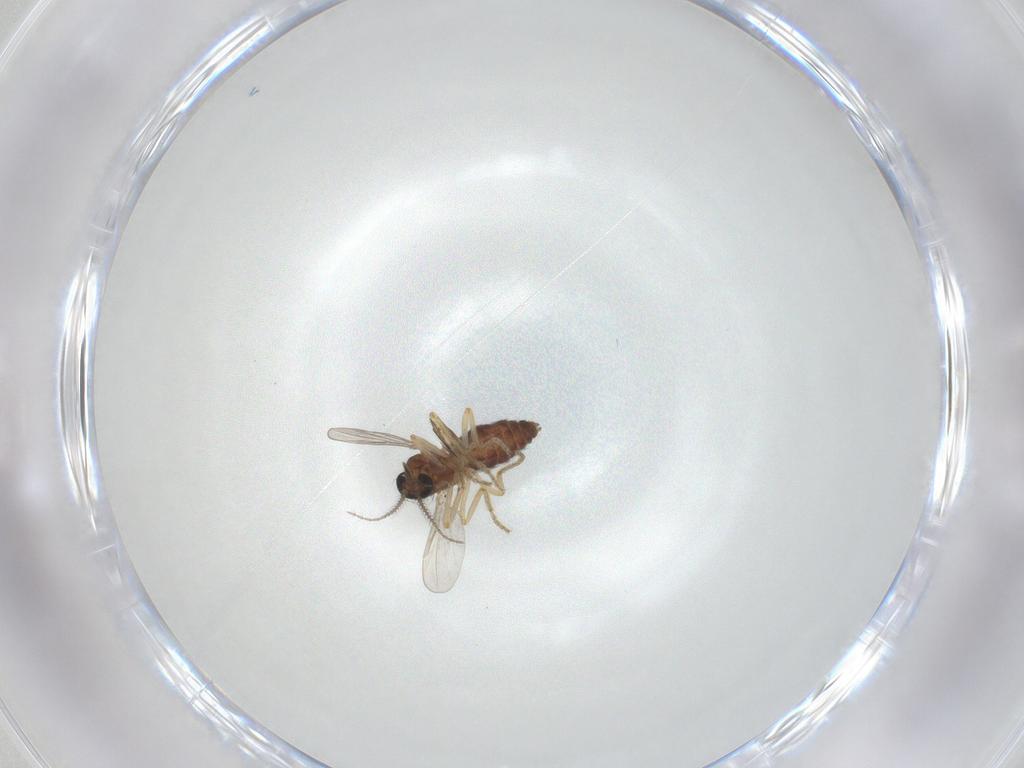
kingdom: Animalia
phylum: Arthropoda
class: Insecta
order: Diptera
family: Ceratopogonidae
